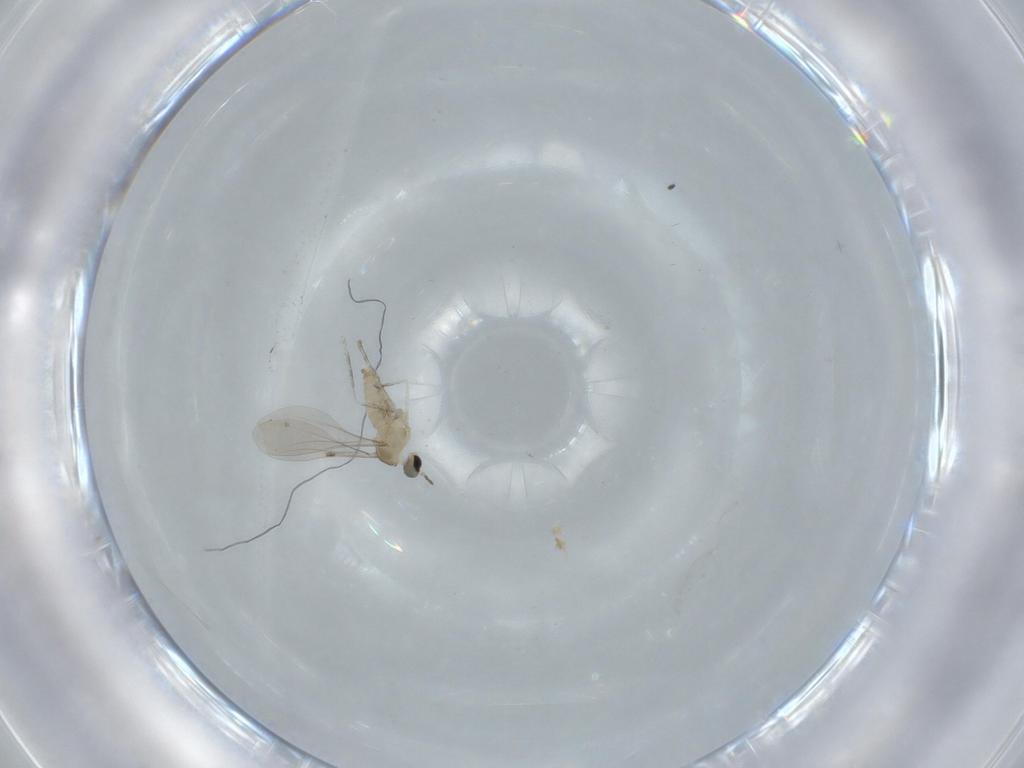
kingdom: Animalia
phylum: Arthropoda
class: Insecta
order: Diptera
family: Cecidomyiidae
